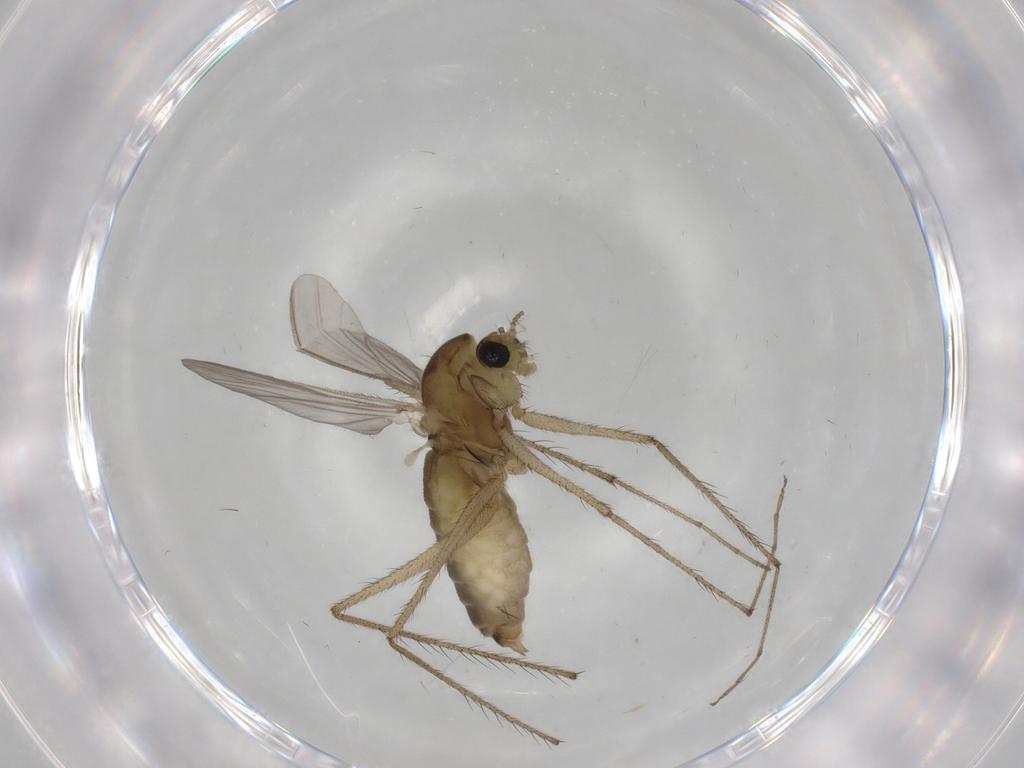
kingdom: Animalia
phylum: Arthropoda
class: Insecta
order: Diptera
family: Chironomidae
